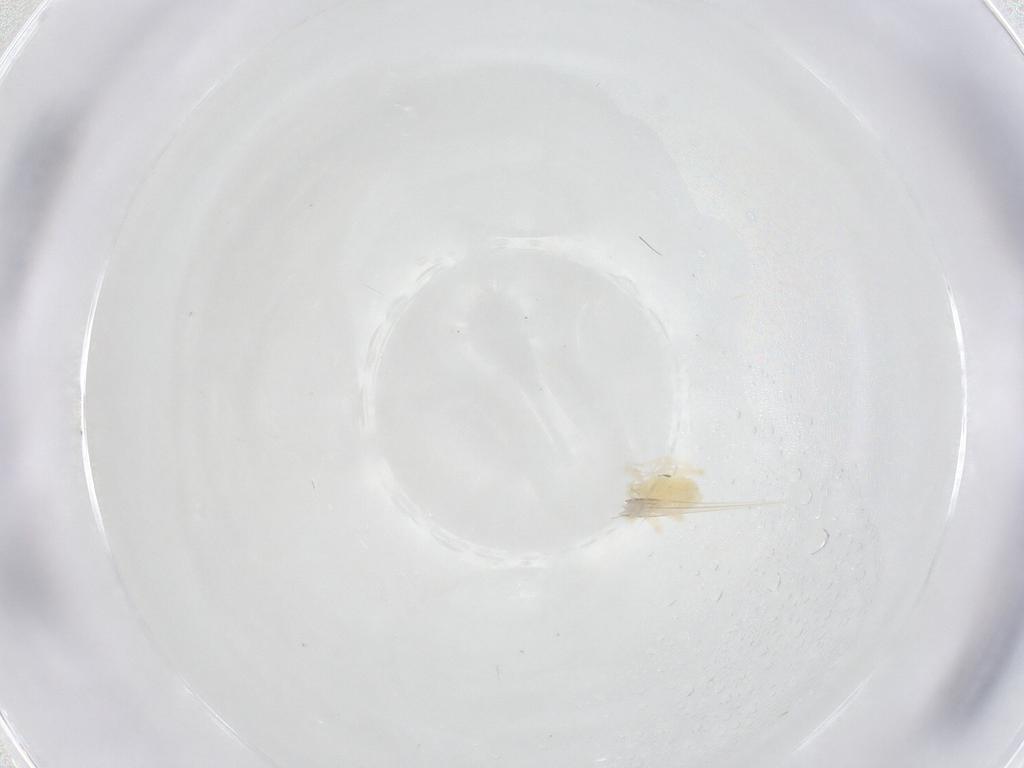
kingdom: Animalia
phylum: Arthropoda
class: Arachnida
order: Trombidiformes
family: Anystidae
